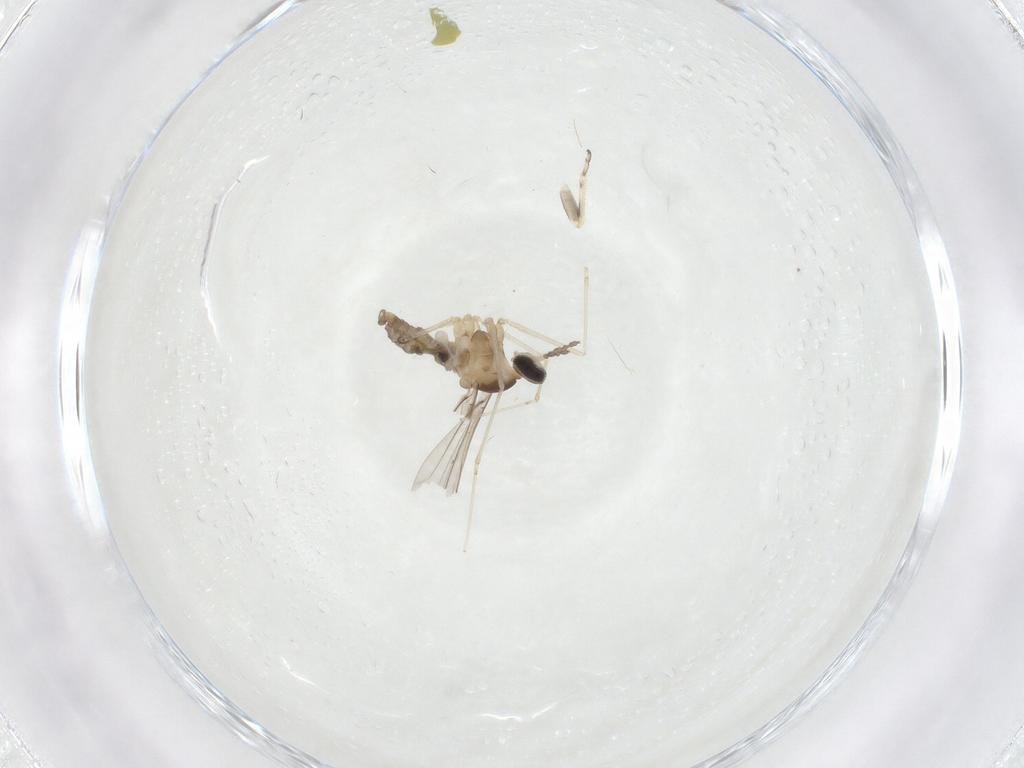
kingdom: Animalia
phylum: Arthropoda
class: Insecta
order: Diptera
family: Cecidomyiidae
